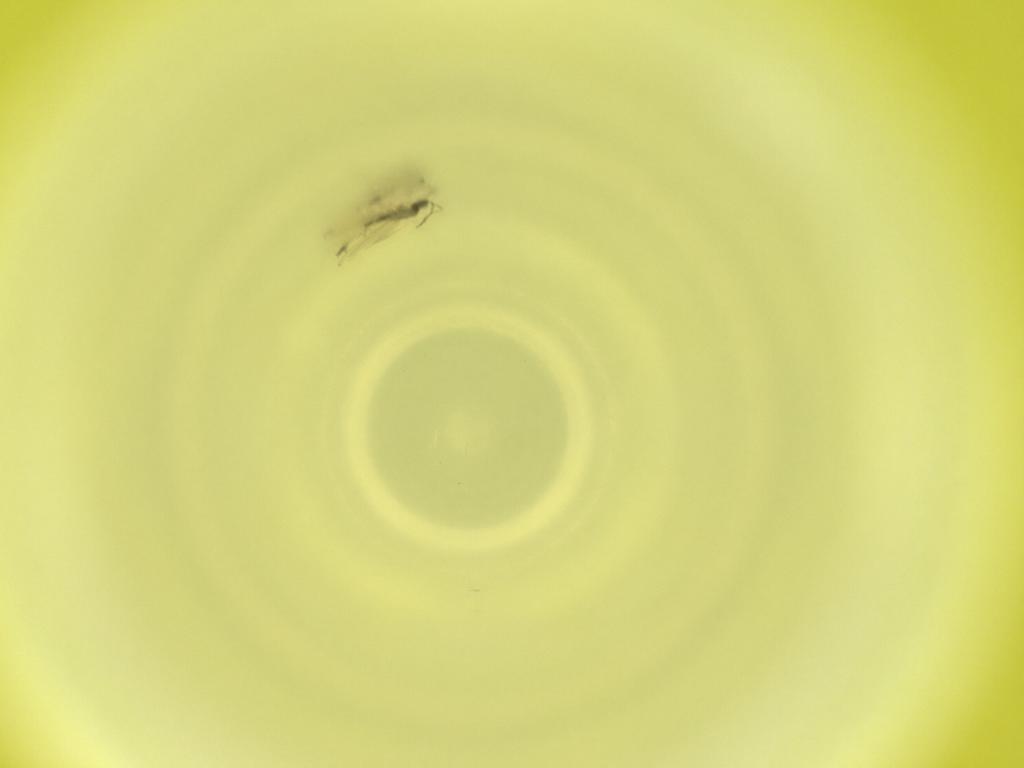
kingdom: Animalia
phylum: Arthropoda
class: Insecta
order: Diptera
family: Cecidomyiidae
